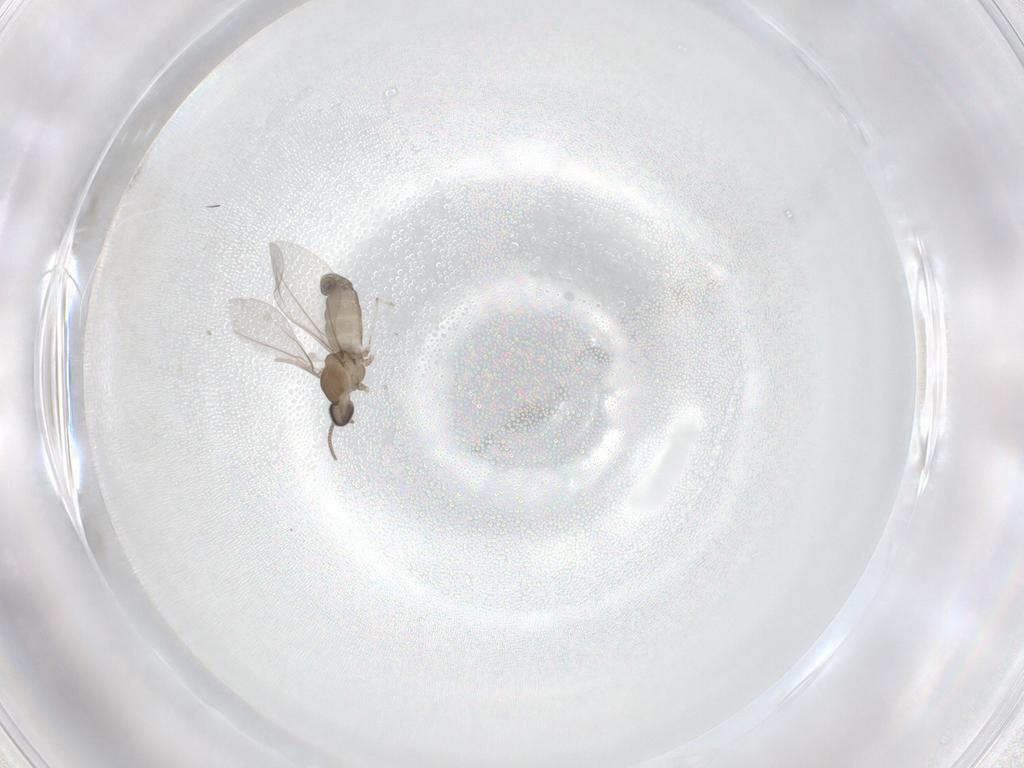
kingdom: Animalia
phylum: Arthropoda
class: Insecta
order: Diptera
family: Cecidomyiidae
